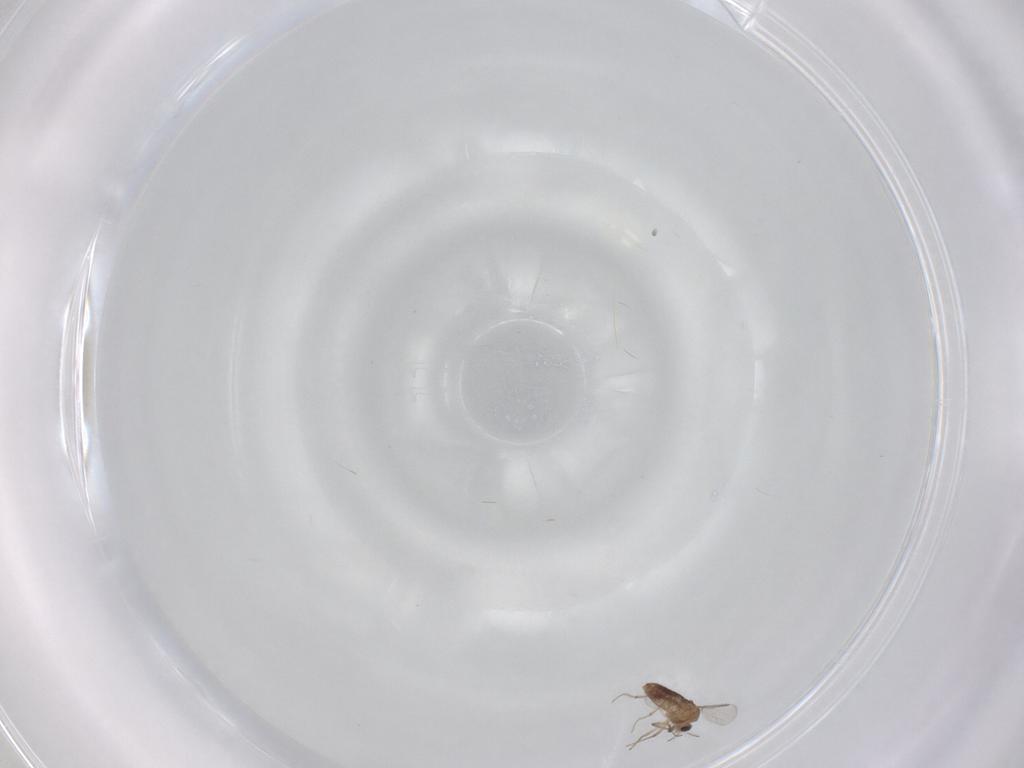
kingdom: Animalia
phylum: Arthropoda
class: Insecta
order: Diptera
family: Chironomidae
